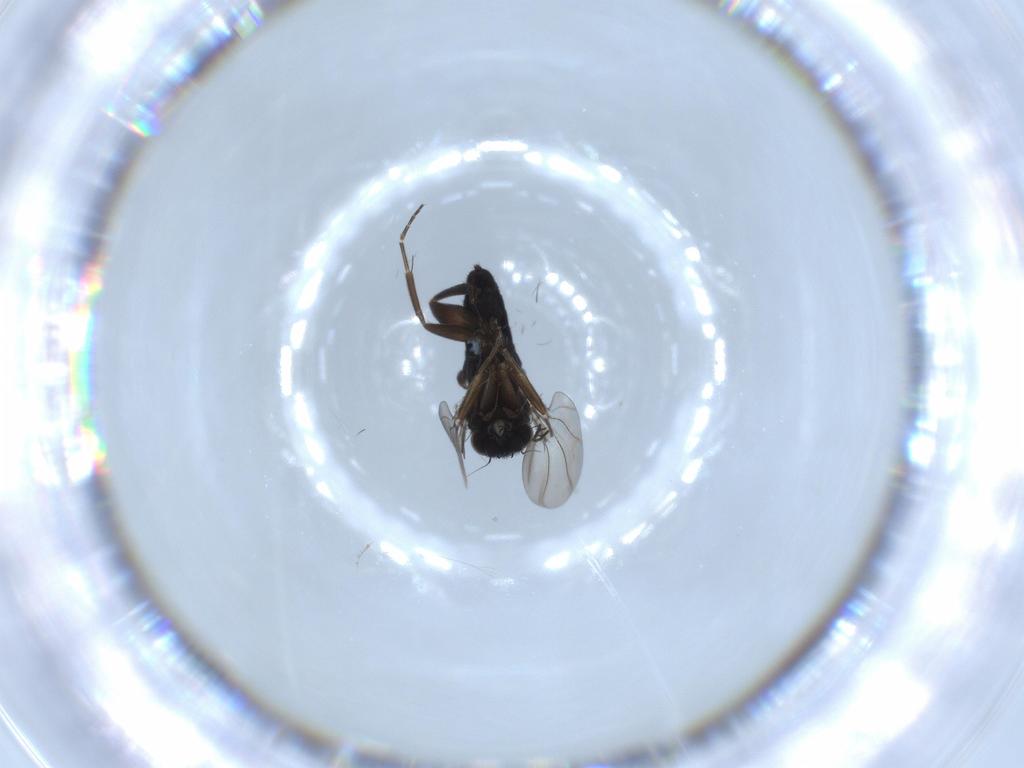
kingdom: Animalia
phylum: Arthropoda
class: Insecta
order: Diptera
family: Phoridae
